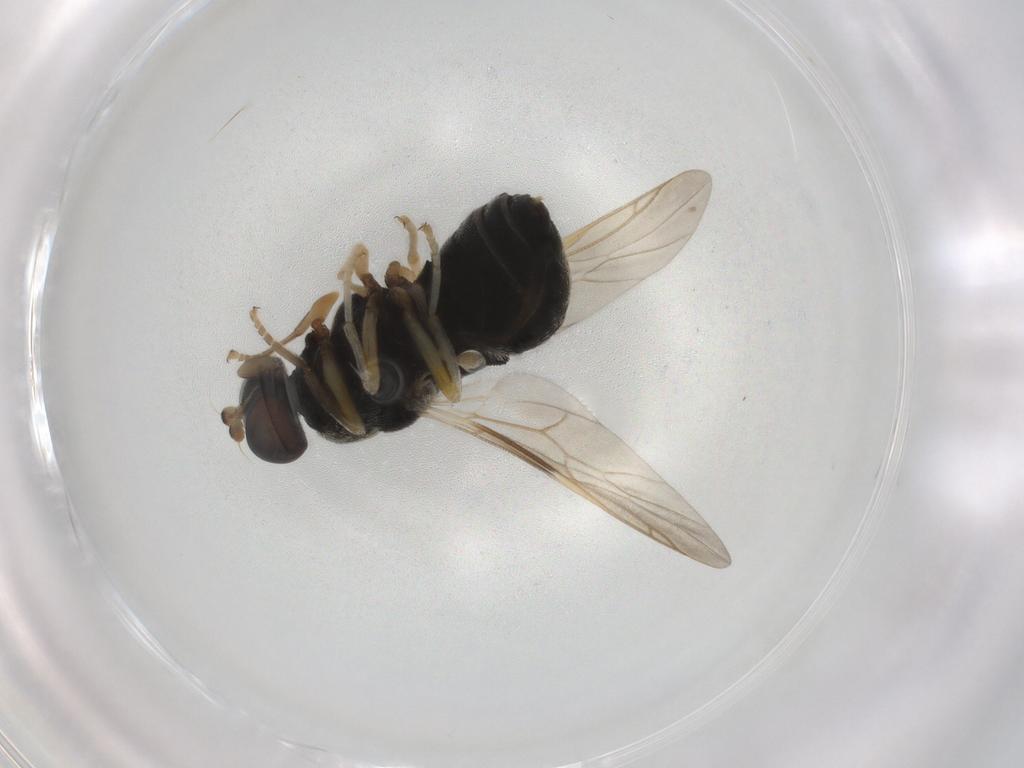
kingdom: Animalia
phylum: Arthropoda
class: Insecta
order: Diptera
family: Stratiomyidae
